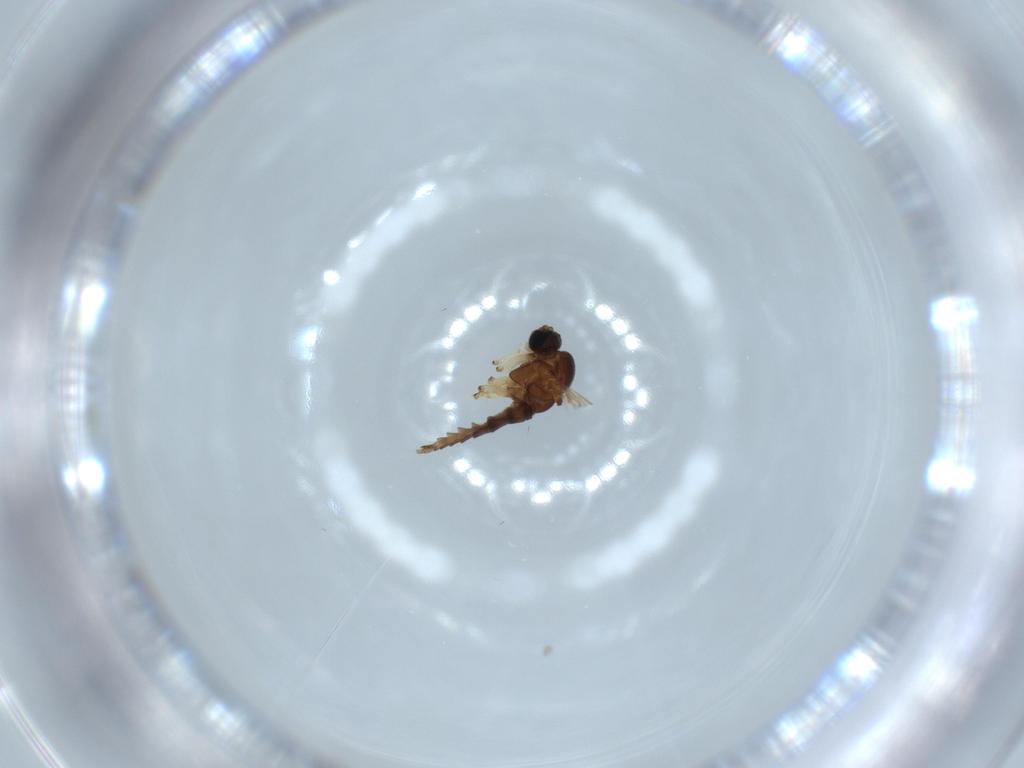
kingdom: Animalia
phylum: Arthropoda
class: Insecta
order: Diptera
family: Sciaridae
